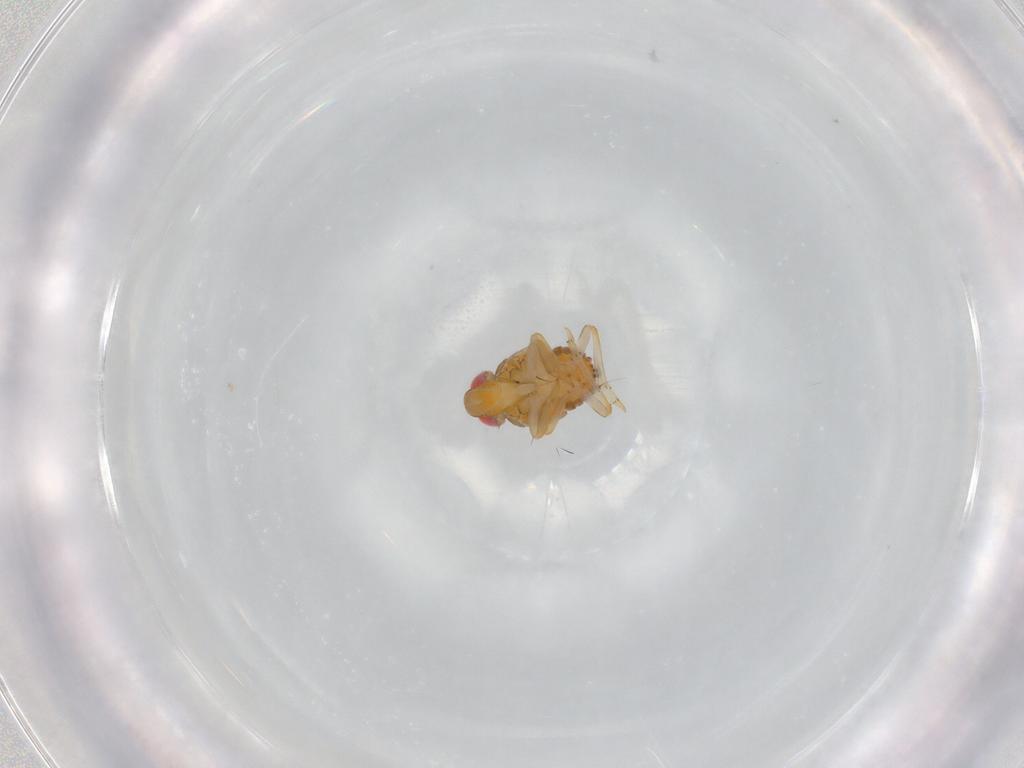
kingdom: Animalia
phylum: Arthropoda
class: Insecta
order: Hemiptera
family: Issidae
